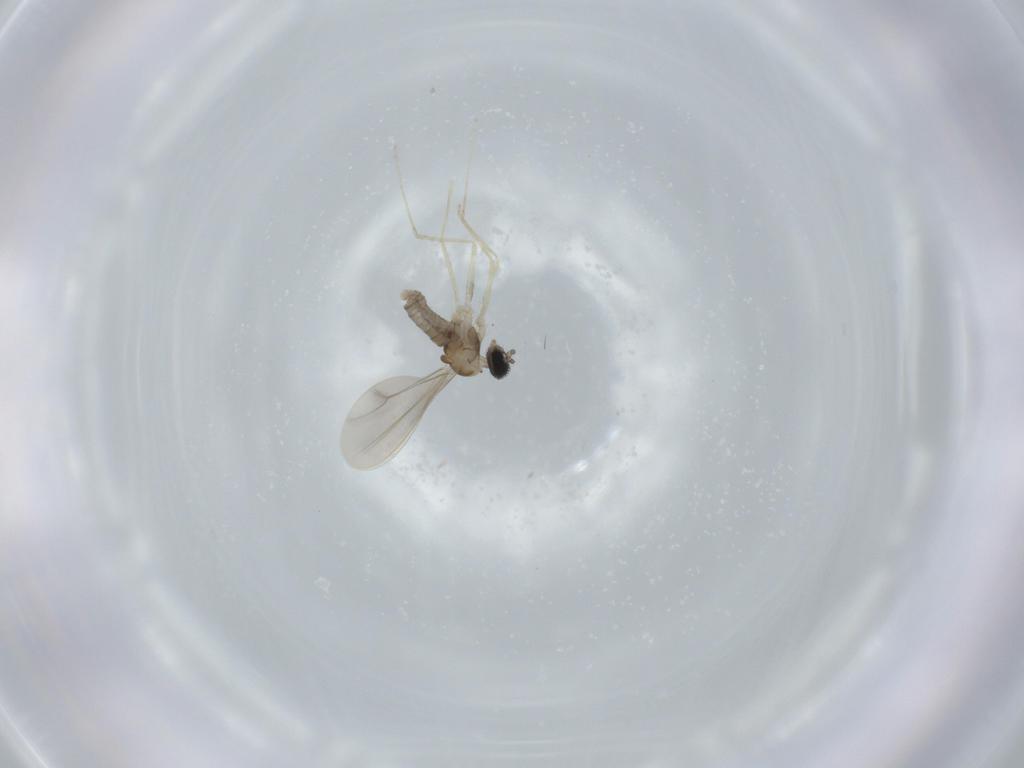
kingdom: Animalia
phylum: Arthropoda
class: Insecta
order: Diptera
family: Cecidomyiidae
